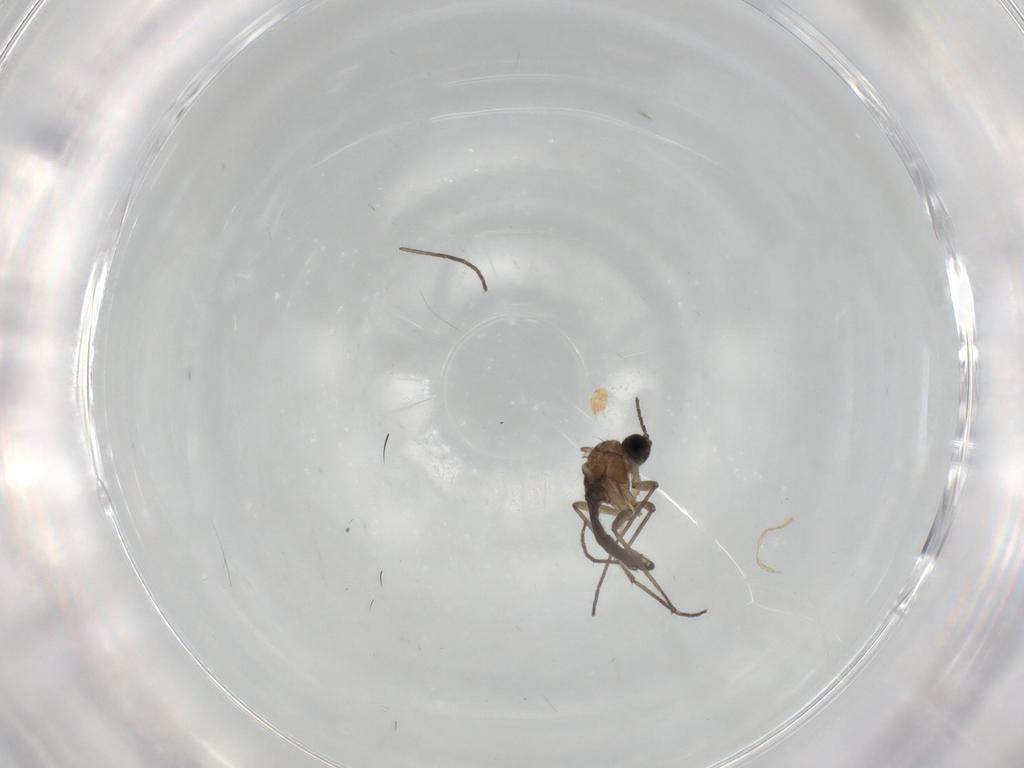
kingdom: Animalia
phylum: Arthropoda
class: Insecta
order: Diptera
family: Sciaridae
